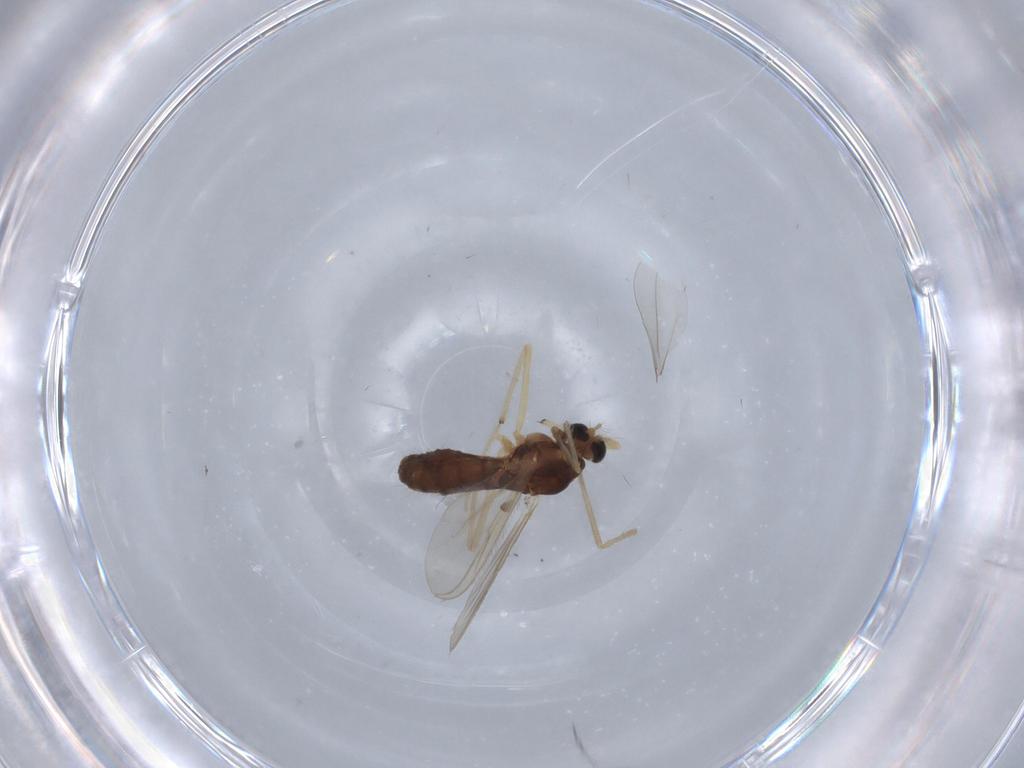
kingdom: Animalia
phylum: Arthropoda
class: Insecta
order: Diptera
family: Chironomidae
